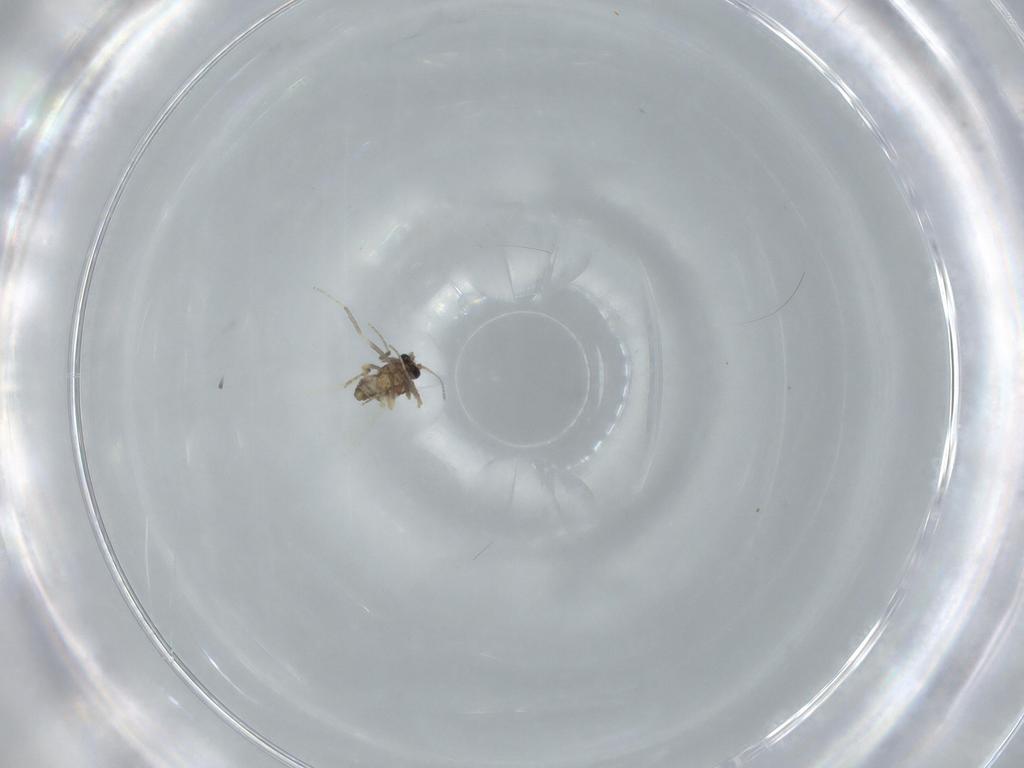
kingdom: Animalia
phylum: Arthropoda
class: Insecta
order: Diptera
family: Ceratopogonidae
